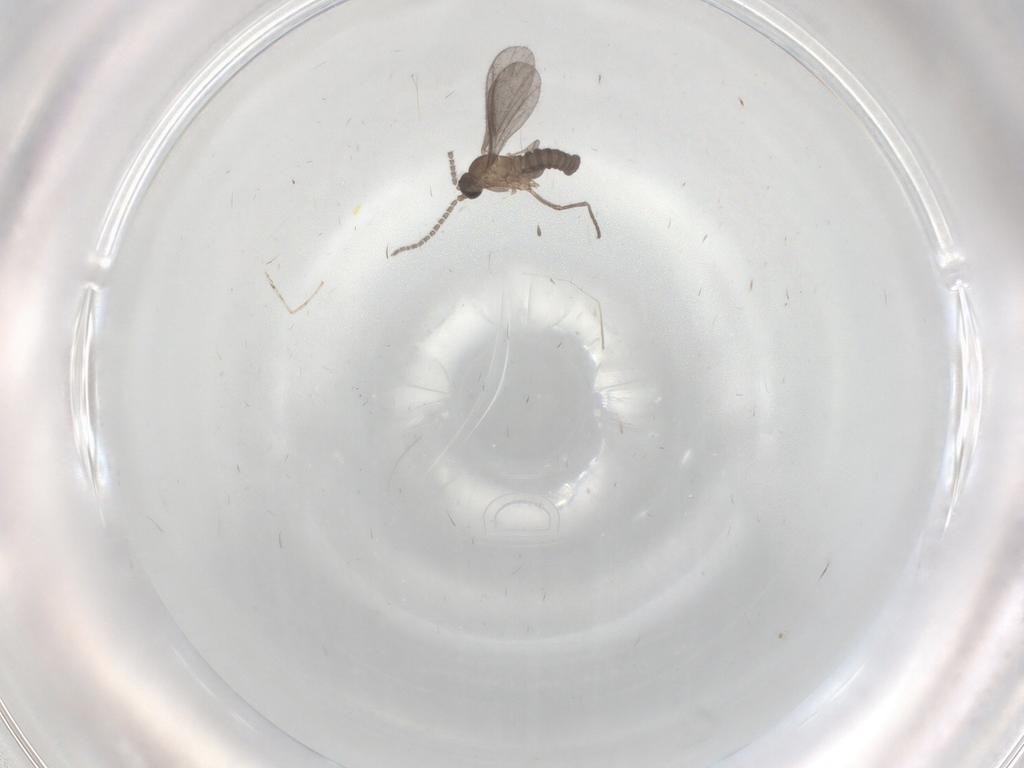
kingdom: Animalia
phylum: Arthropoda
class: Insecta
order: Diptera
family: Sciaridae
